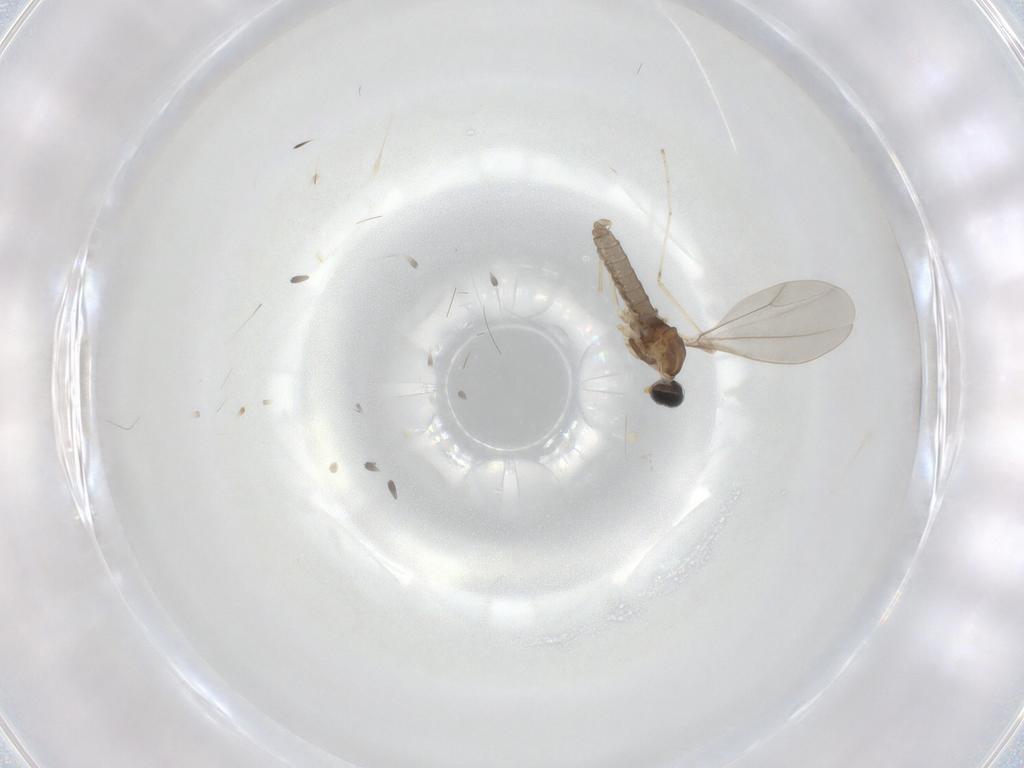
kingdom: Animalia
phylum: Arthropoda
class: Insecta
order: Diptera
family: Cecidomyiidae
